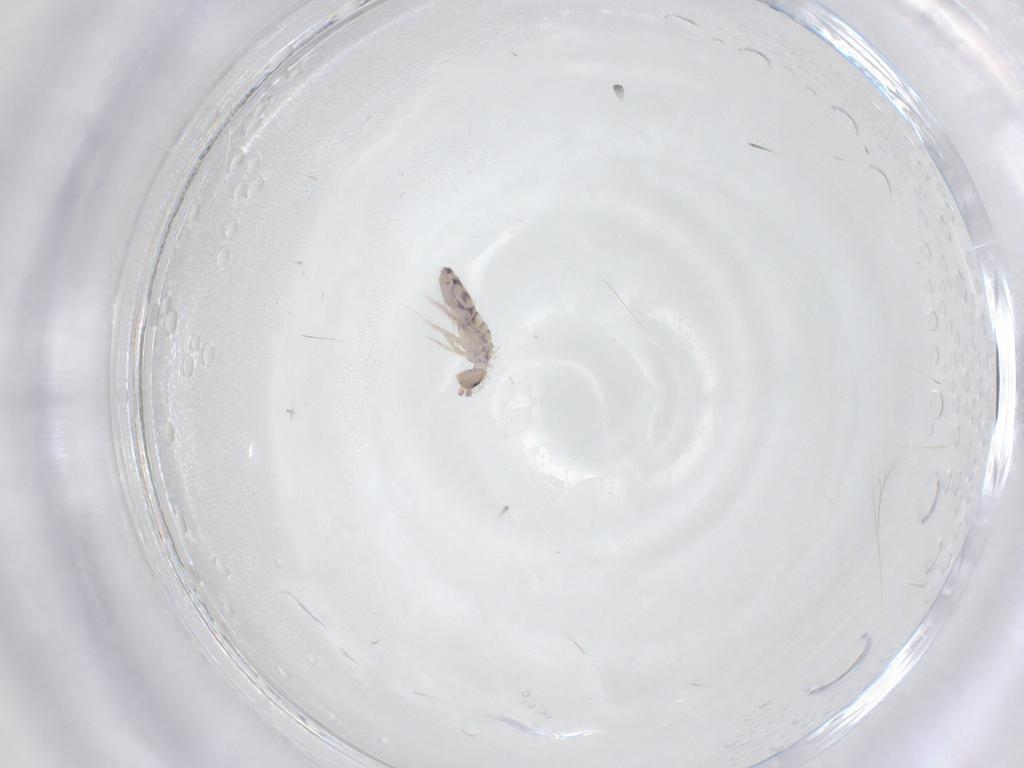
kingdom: Animalia
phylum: Arthropoda
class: Collembola
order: Entomobryomorpha
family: Entomobryidae
